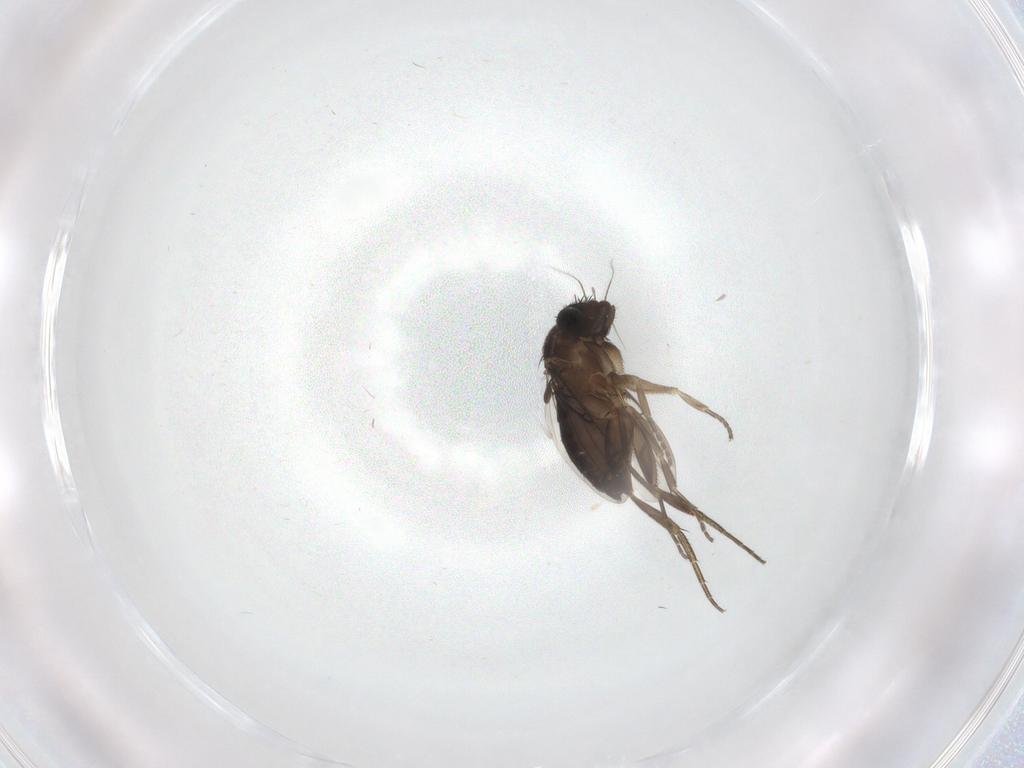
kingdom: Animalia
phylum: Arthropoda
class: Insecta
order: Diptera
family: Phoridae
